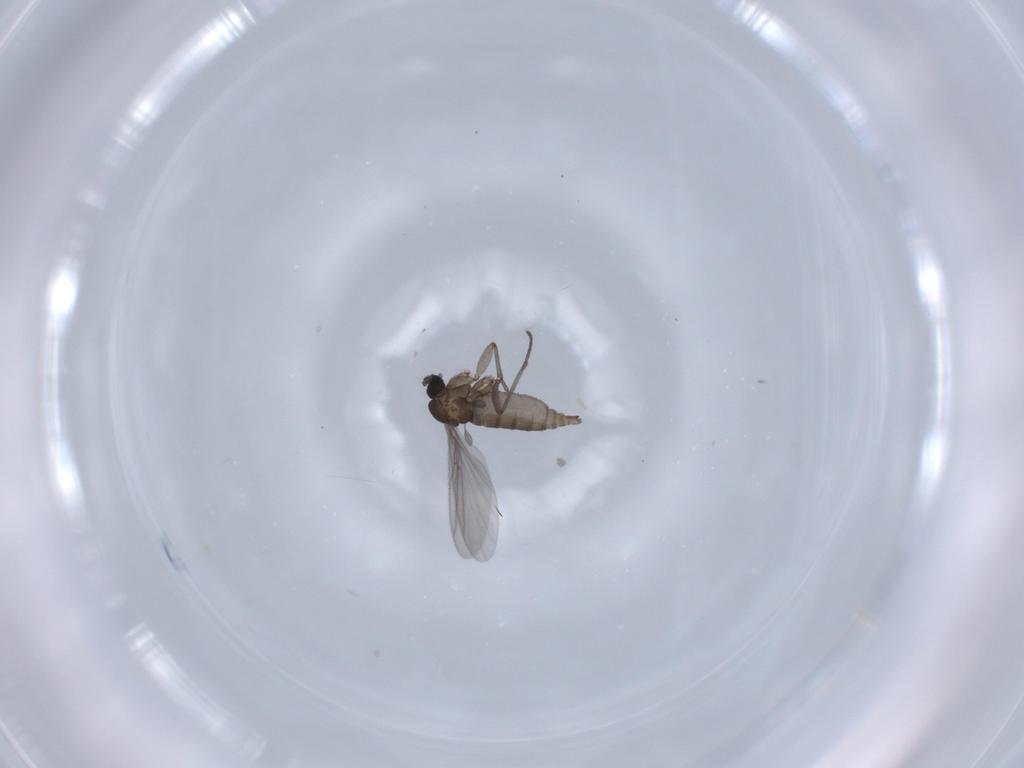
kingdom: Animalia
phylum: Arthropoda
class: Insecta
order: Diptera
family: Sciaridae
